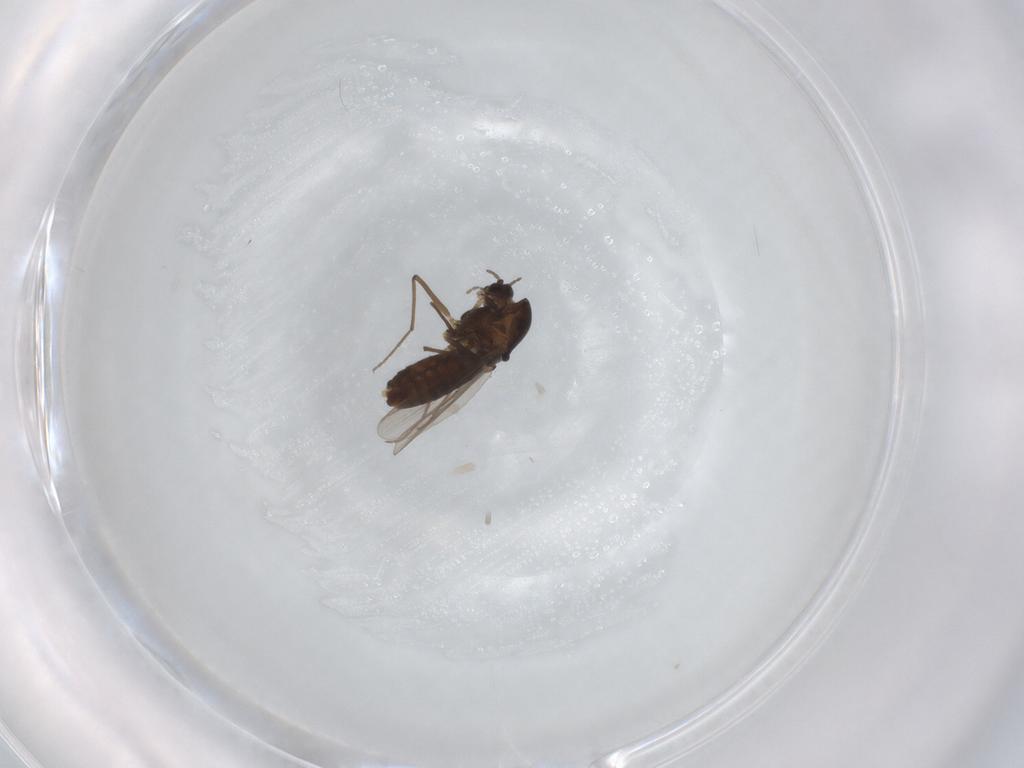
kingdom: Animalia
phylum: Arthropoda
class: Insecta
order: Diptera
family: Chironomidae
